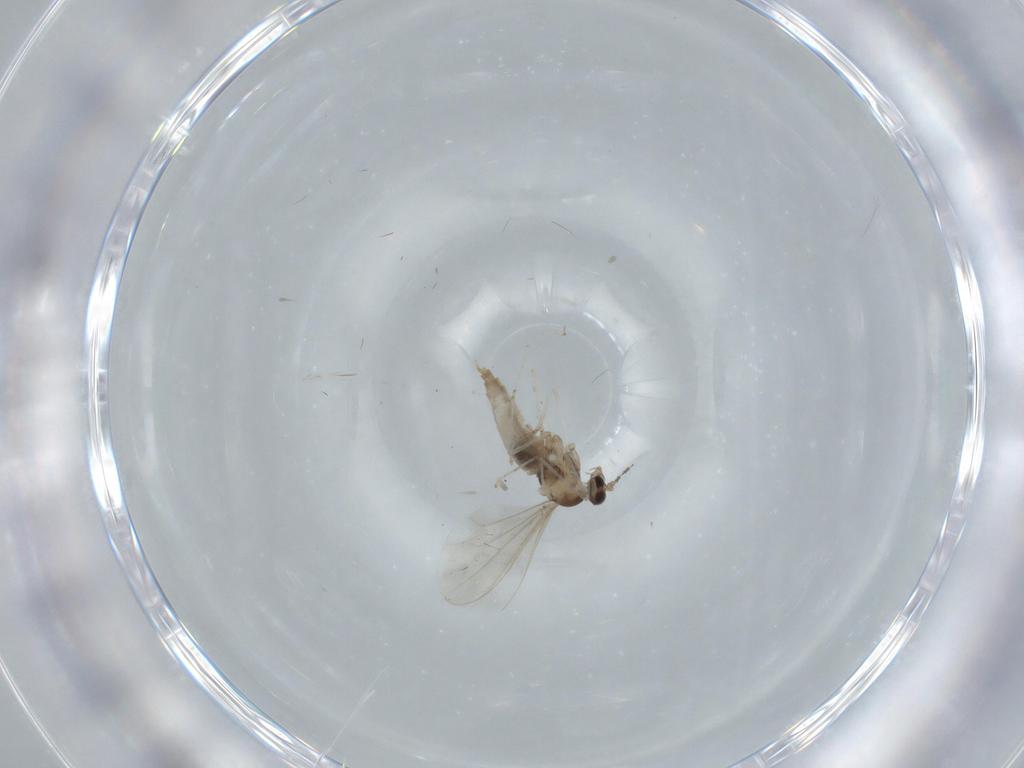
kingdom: Animalia
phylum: Arthropoda
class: Insecta
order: Diptera
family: Cecidomyiidae
